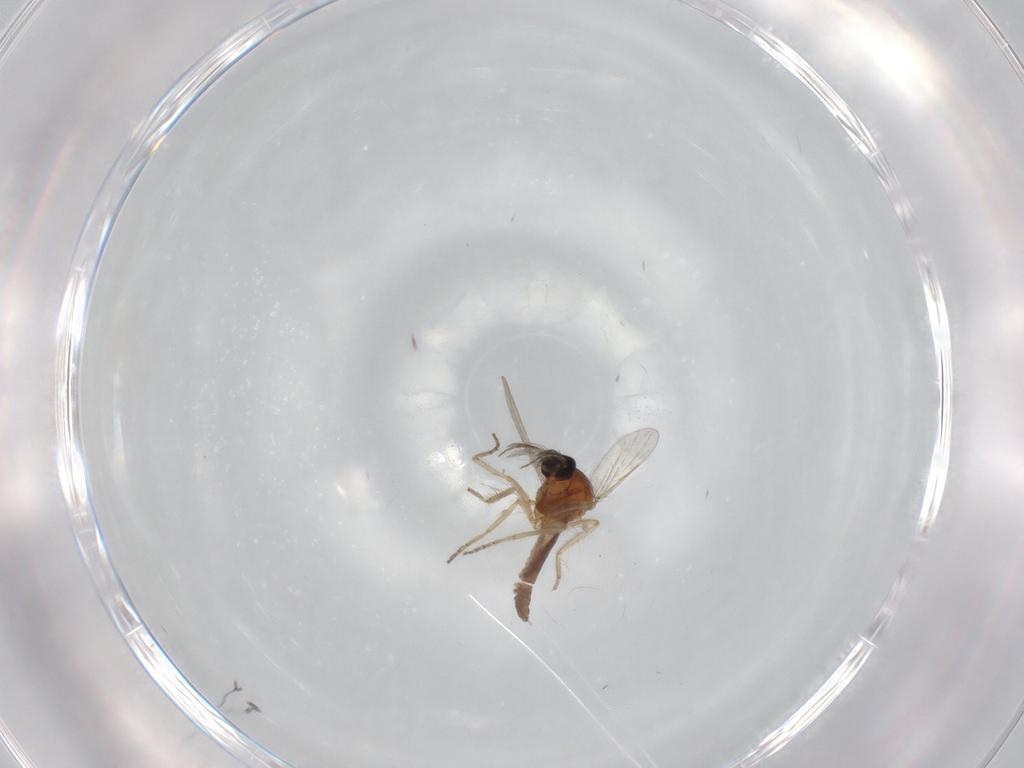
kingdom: Animalia
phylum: Arthropoda
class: Insecta
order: Diptera
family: Ceratopogonidae
